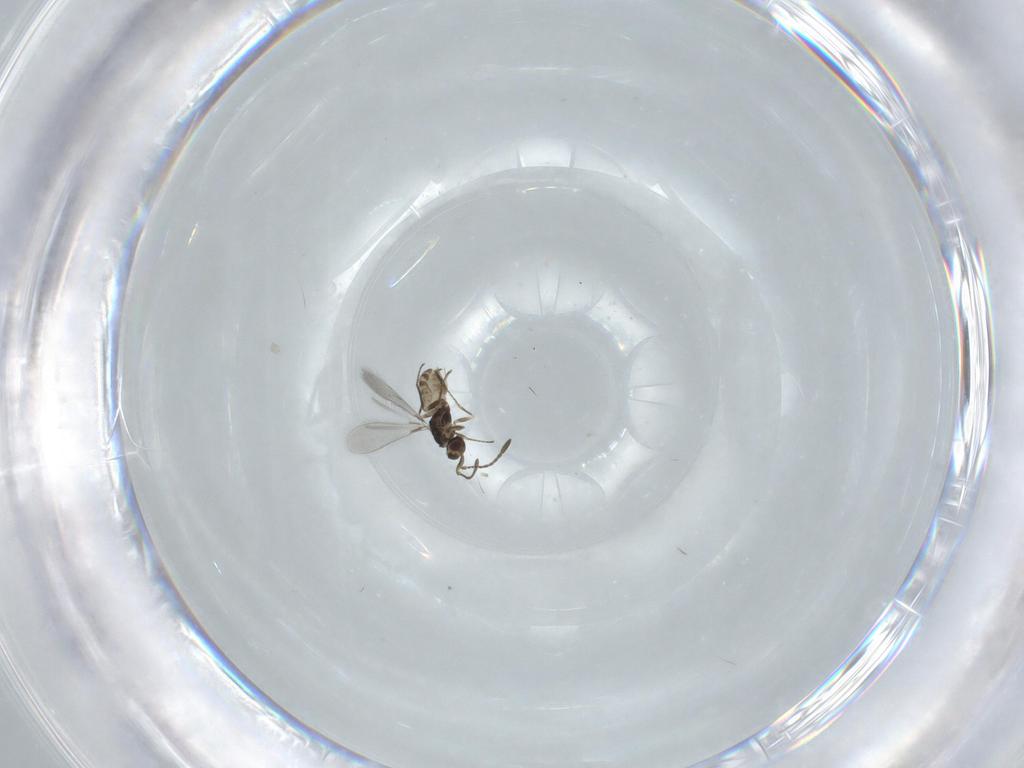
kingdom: Animalia
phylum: Arthropoda
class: Insecta
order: Hymenoptera
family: Mymaridae
